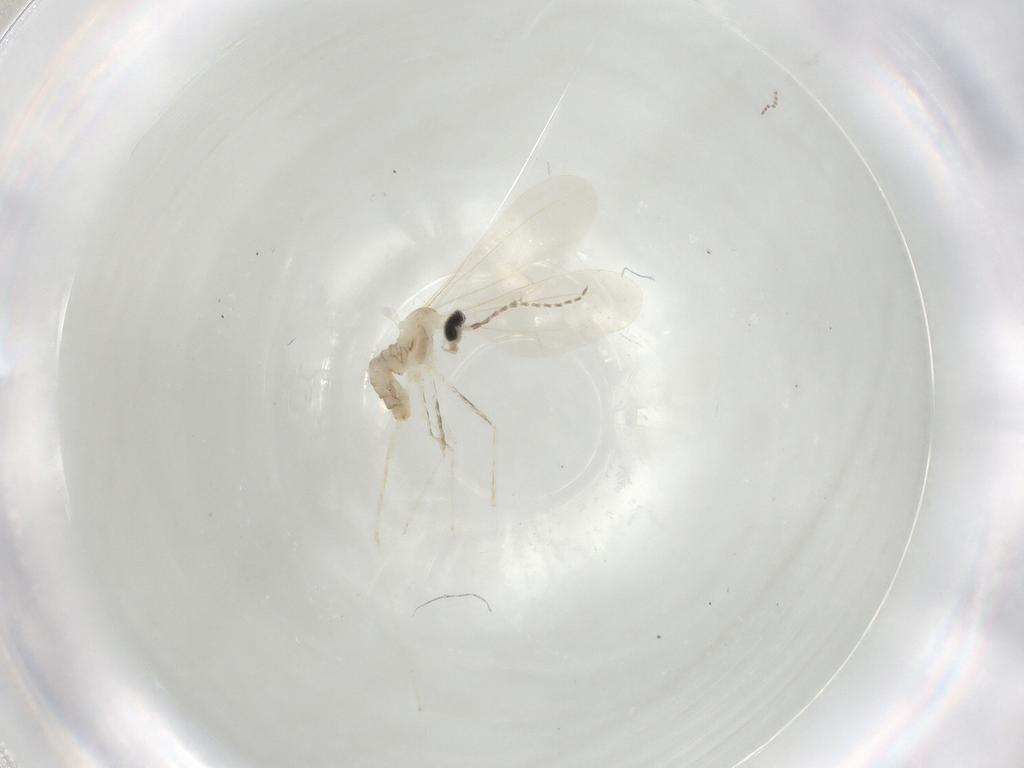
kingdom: Animalia
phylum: Arthropoda
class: Insecta
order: Diptera
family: Cecidomyiidae
